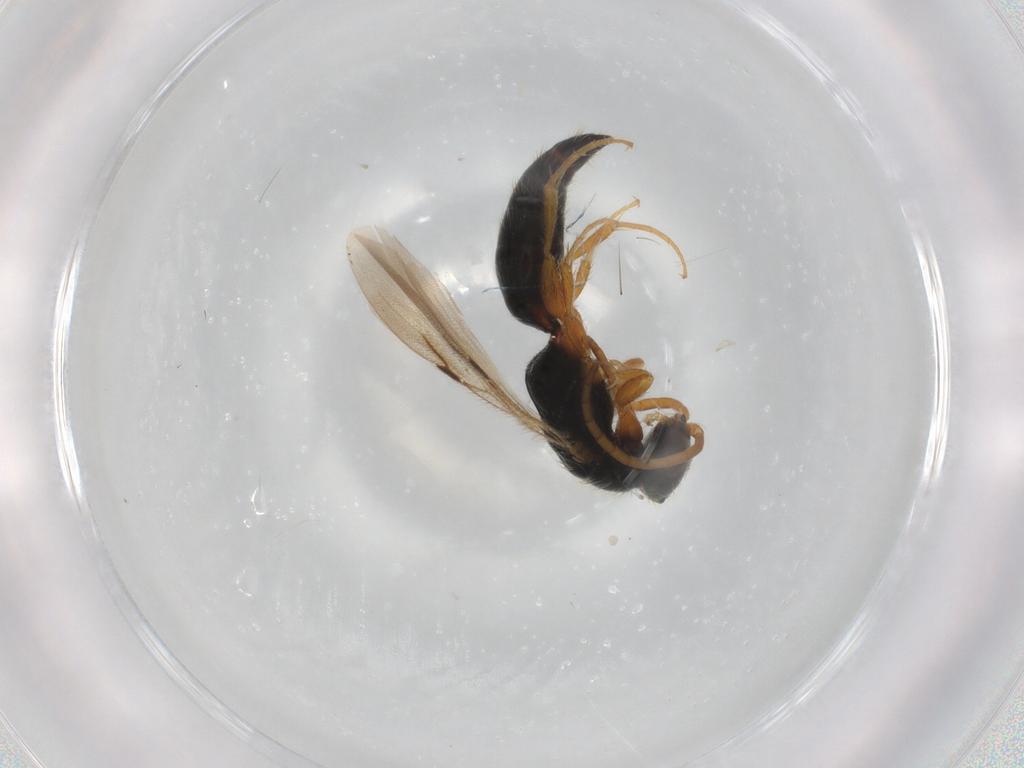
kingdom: Animalia
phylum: Arthropoda
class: Insecta
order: Hymenoptera
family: Bethylidae
